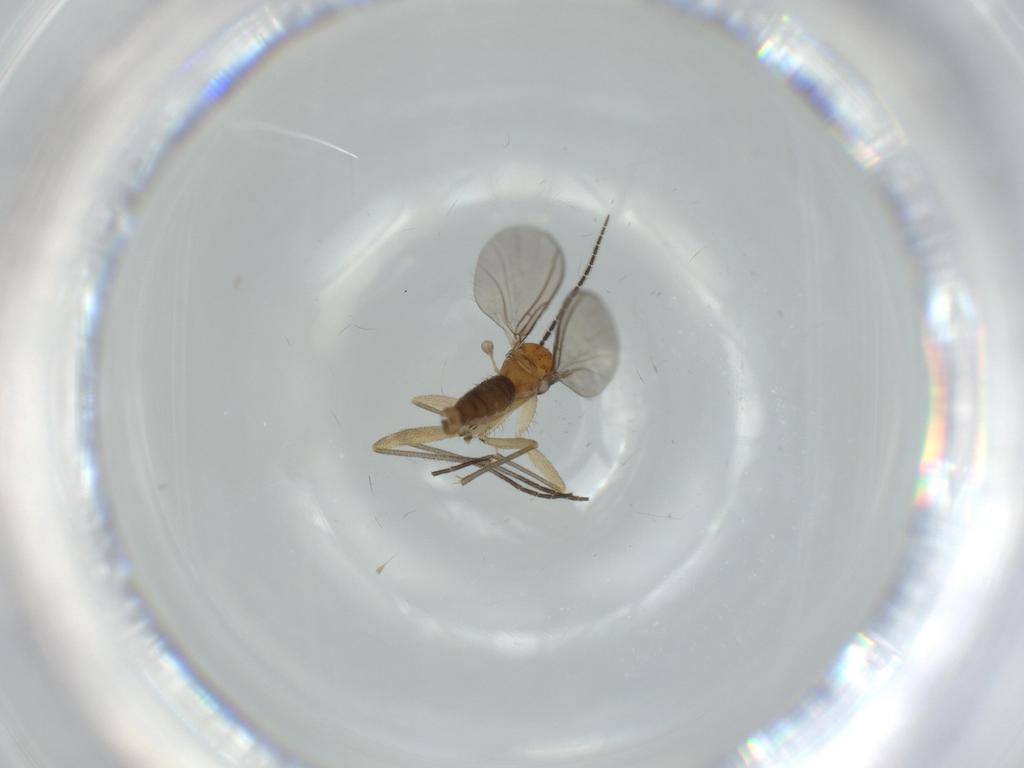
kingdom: Animalia
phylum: Arthropoda
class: Insecta
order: Diptera
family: Sciaridae
